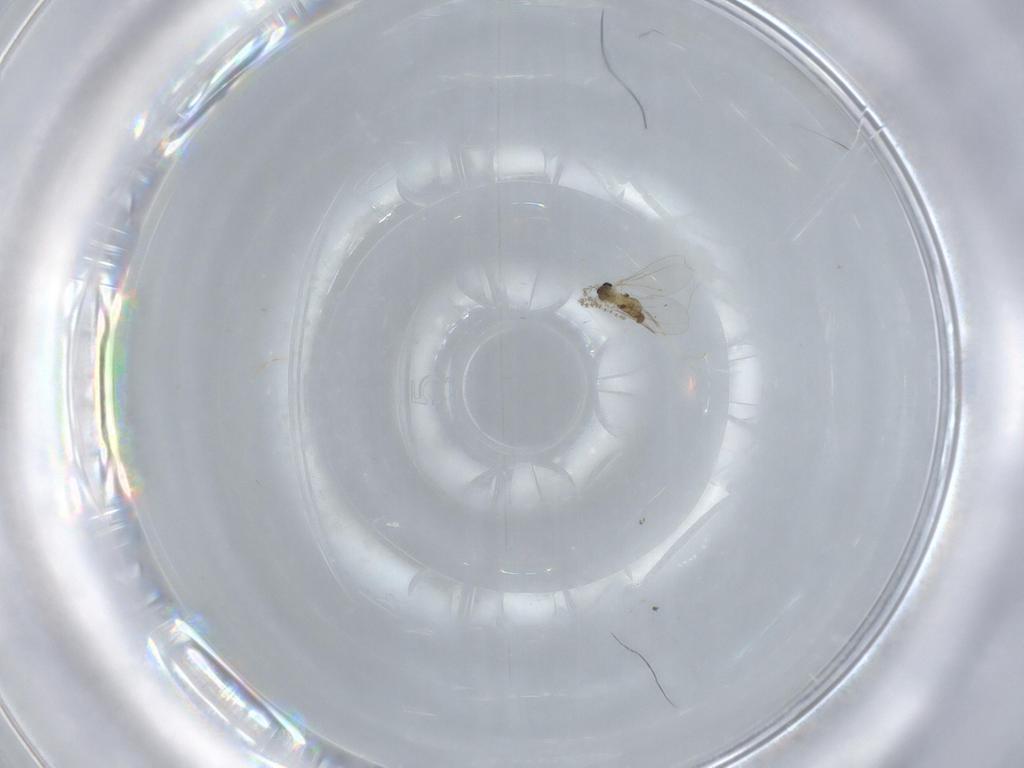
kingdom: Animalia
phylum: Arthropoda
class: Insecta
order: Diptera
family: Cecidomyiidae
